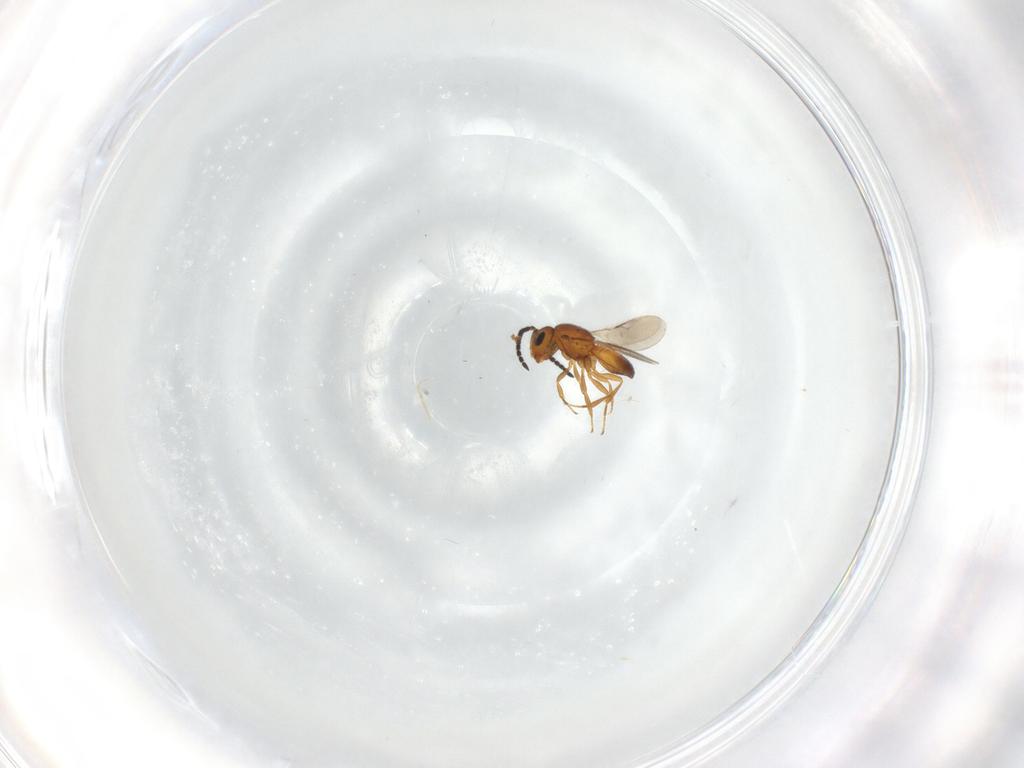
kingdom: Animalia
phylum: Arthropoda
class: Insecta
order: Hymenoptera
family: Scelionidae
